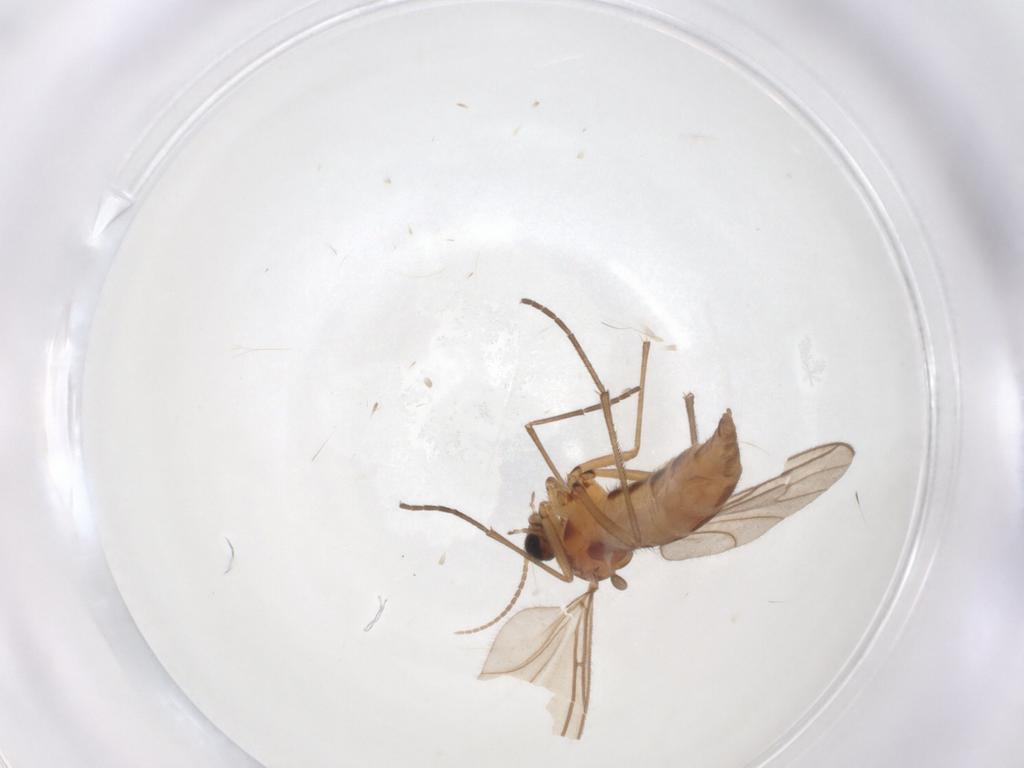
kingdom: Animalia
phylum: Arthropoda
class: Insecta
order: Diptera
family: Sciaridae
